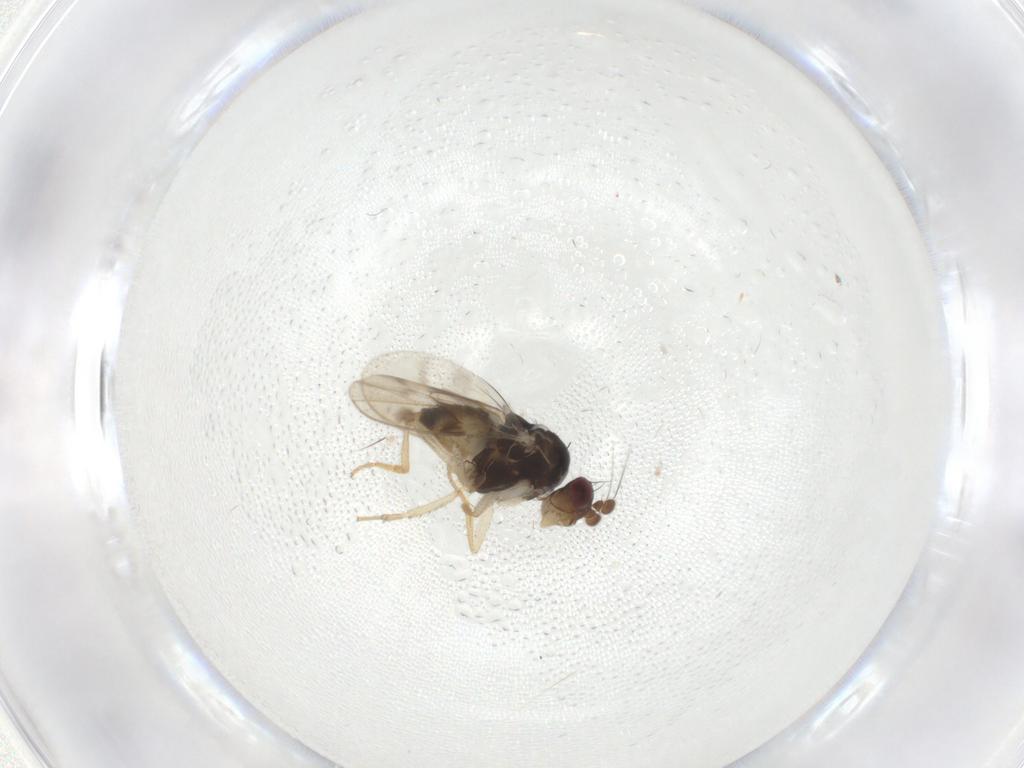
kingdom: Animalia
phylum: Arthropoda
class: Insecta
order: Diptera
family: Sphaeroceridae
